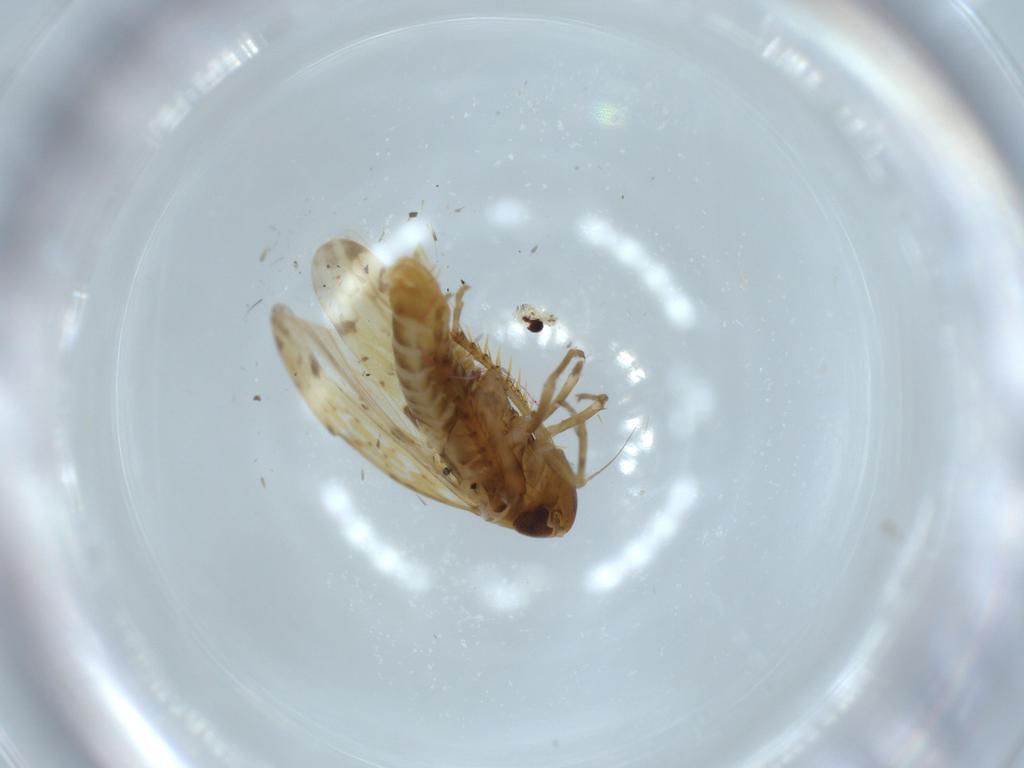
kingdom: Animalia
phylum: Arthropoda
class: Insecta
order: Hemiptera
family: Cicadellidae
